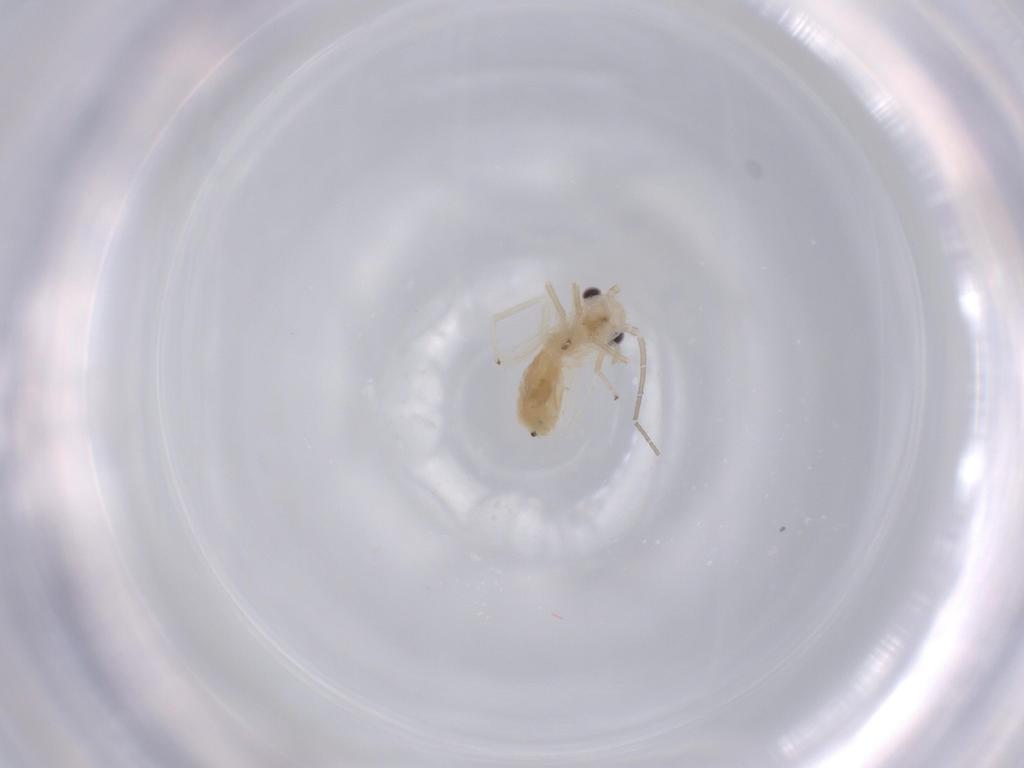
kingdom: Animalia
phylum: Arthropoda
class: Insecta
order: Psocodea
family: Caeciliusidae
